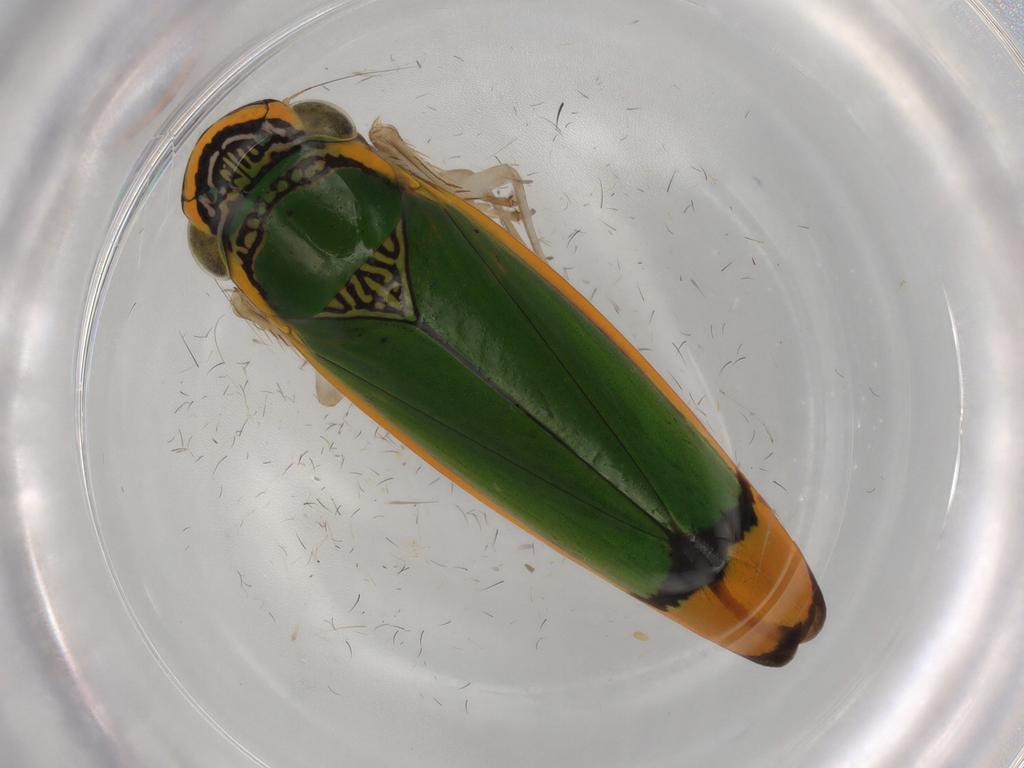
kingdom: Animalia
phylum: Arthropoda
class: Insecta
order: Hemiptera
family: Cicadellidae
